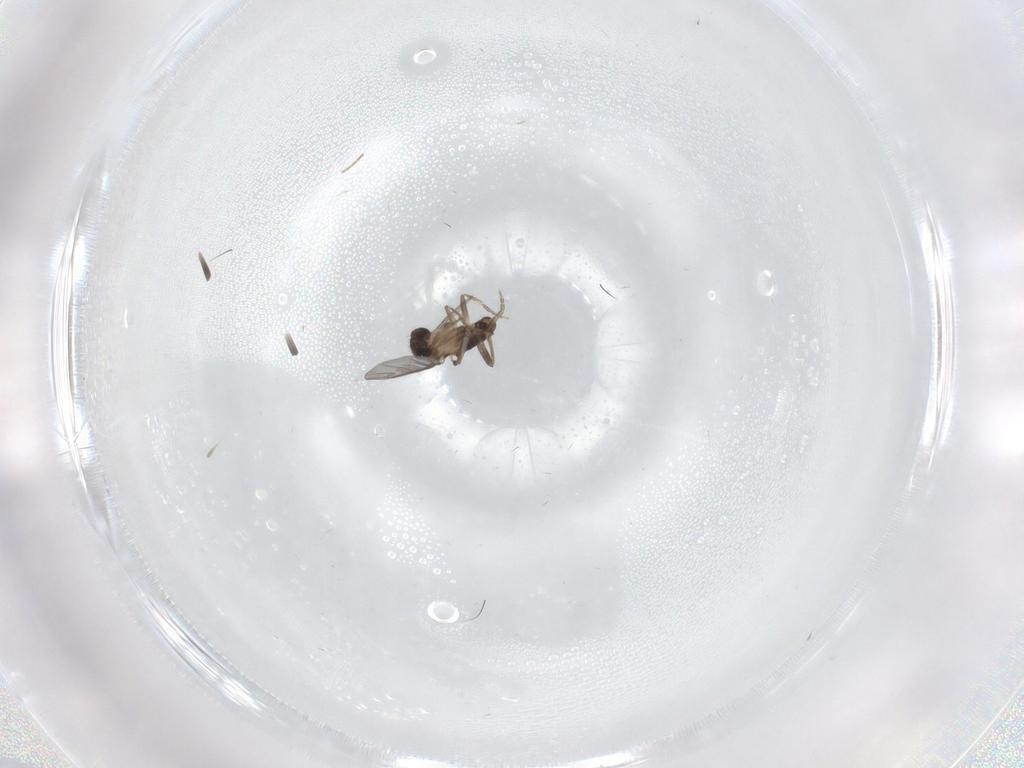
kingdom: Animalia
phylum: Arthropoda
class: Insecta
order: Diptera
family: Phoridae
